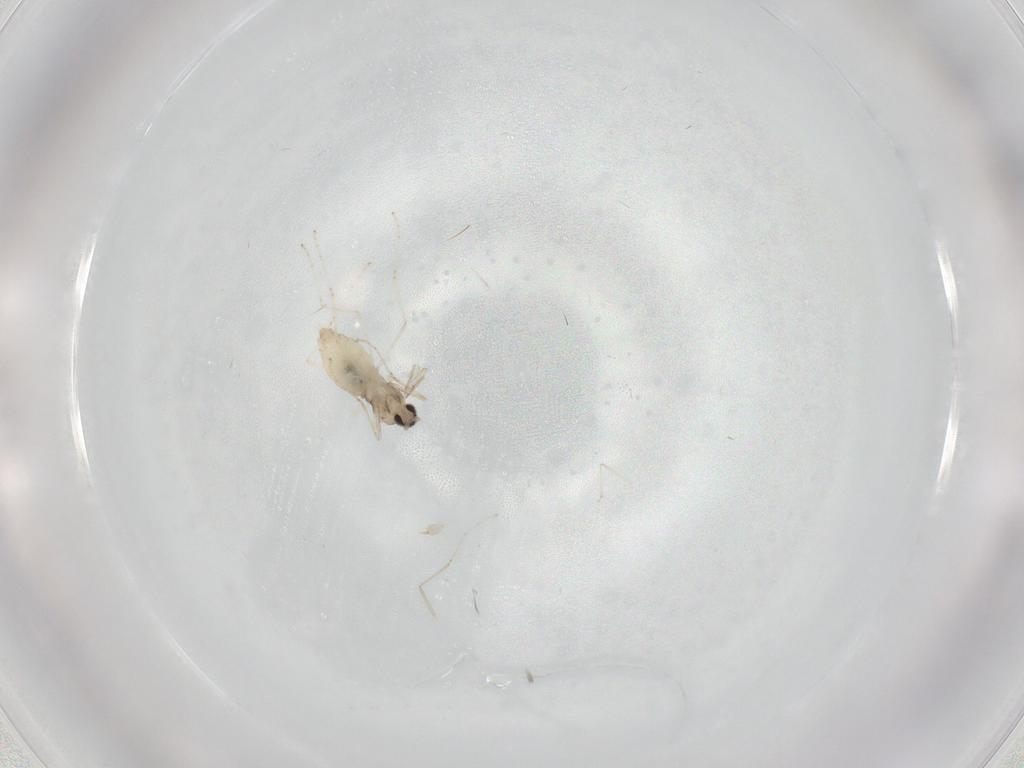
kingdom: Animalia
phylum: Arthropoda
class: Insecta
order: Diptera
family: Cecidomyiidae
